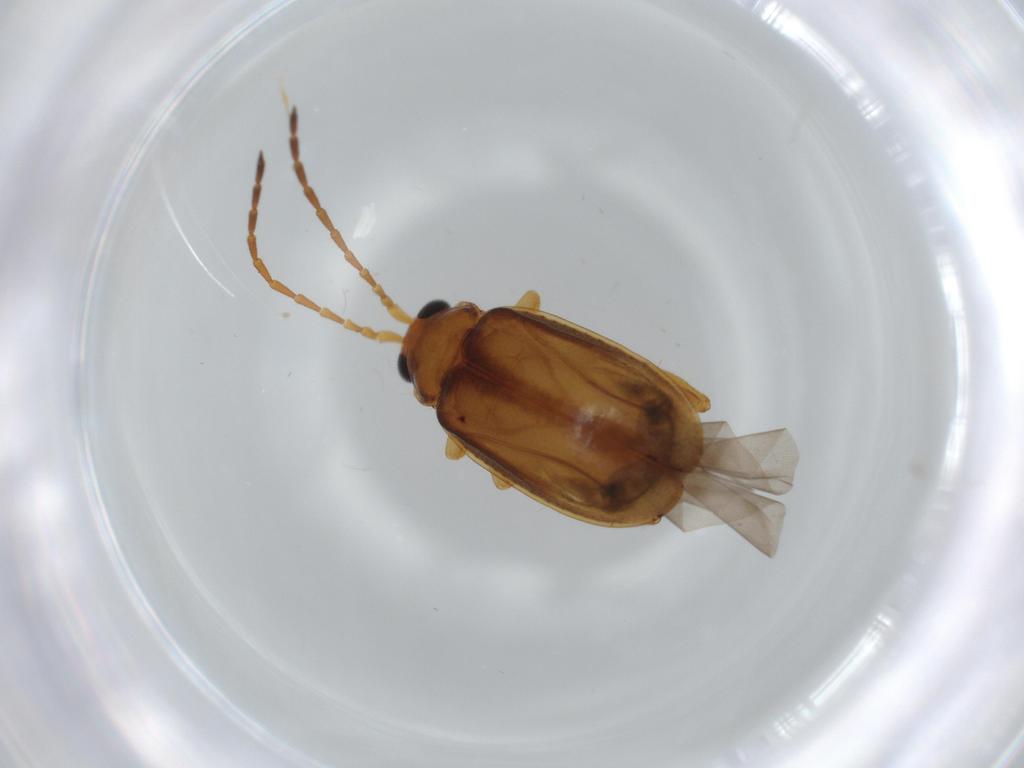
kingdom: Animalia
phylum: Arthropoda
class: Insecta
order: Coleoptera
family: Chrysomelidae
